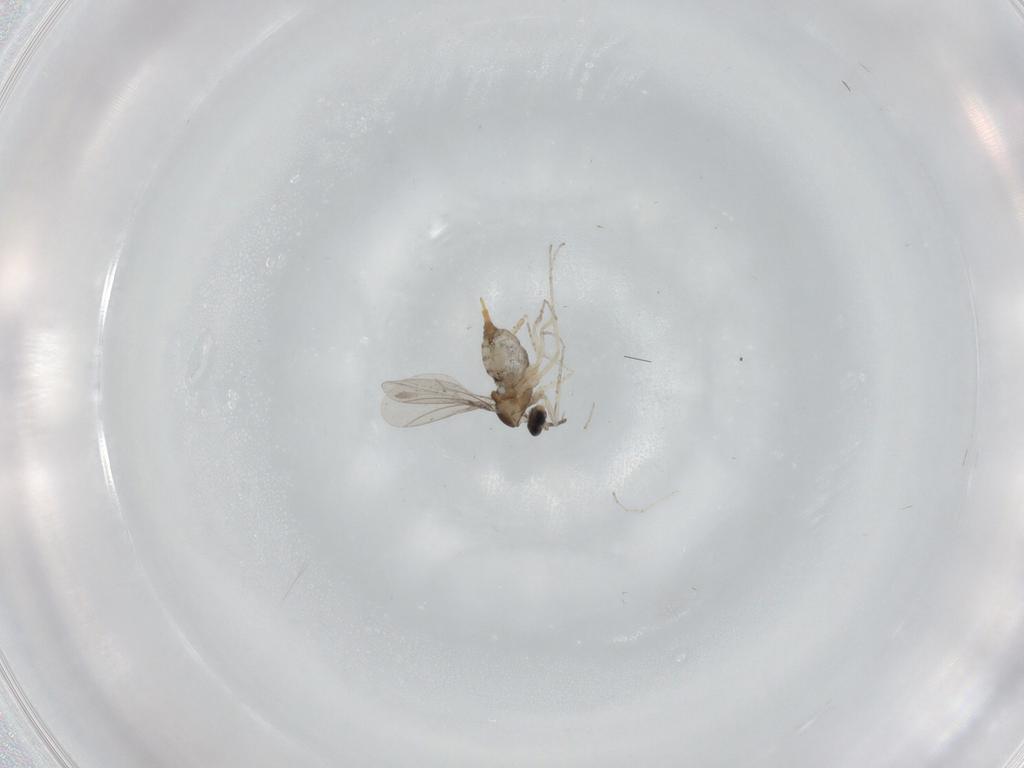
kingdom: Animalia
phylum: Arthropoda
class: Insecta
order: Diptera
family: Cecidomyiidae
